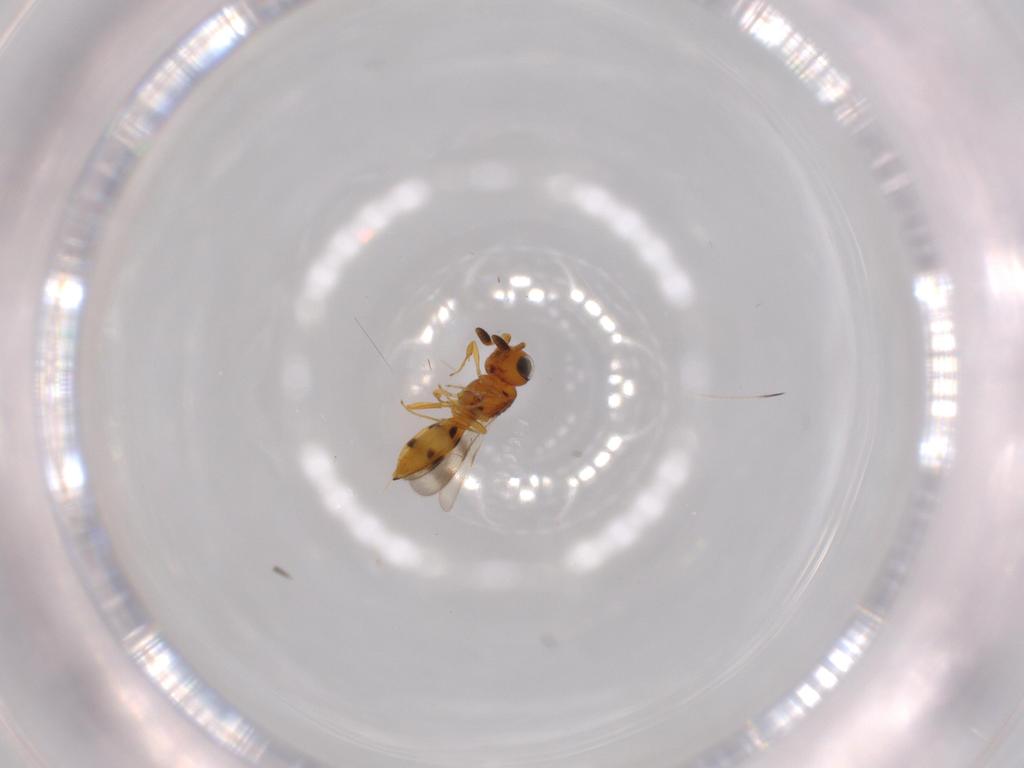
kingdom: Animalia
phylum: Arthropoda
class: Insecta
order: Hymenoptera
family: Scelionidae
